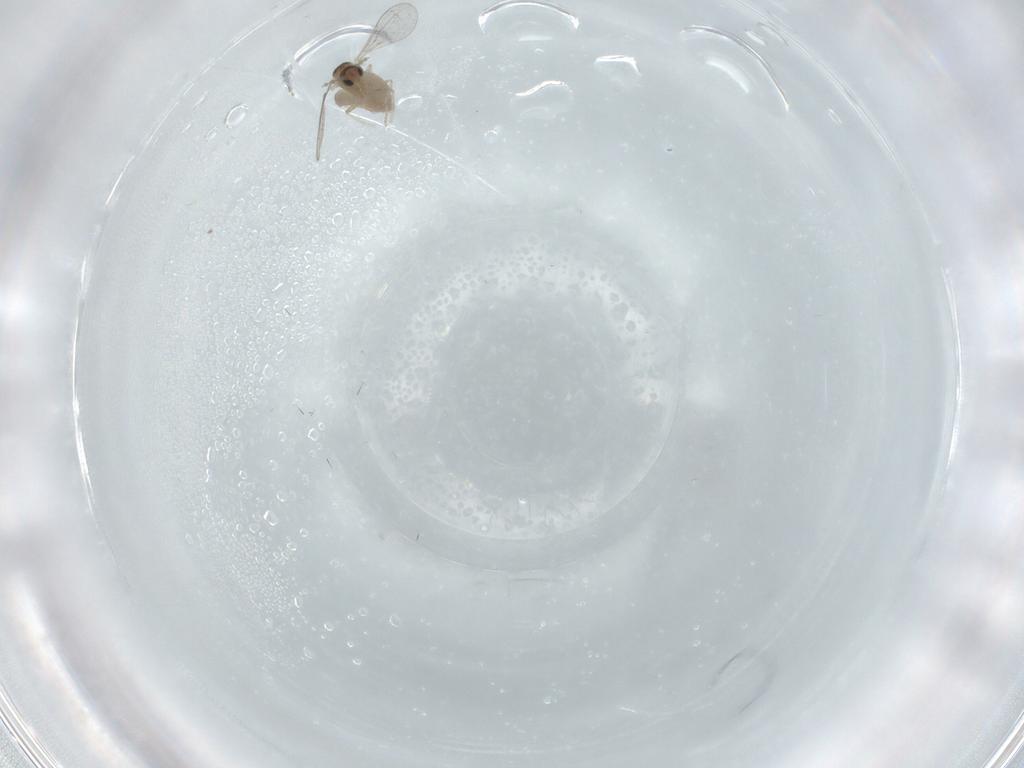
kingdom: Animalia
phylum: Arthropoda
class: Insecta
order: Diptera
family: Cecidomyiidae
